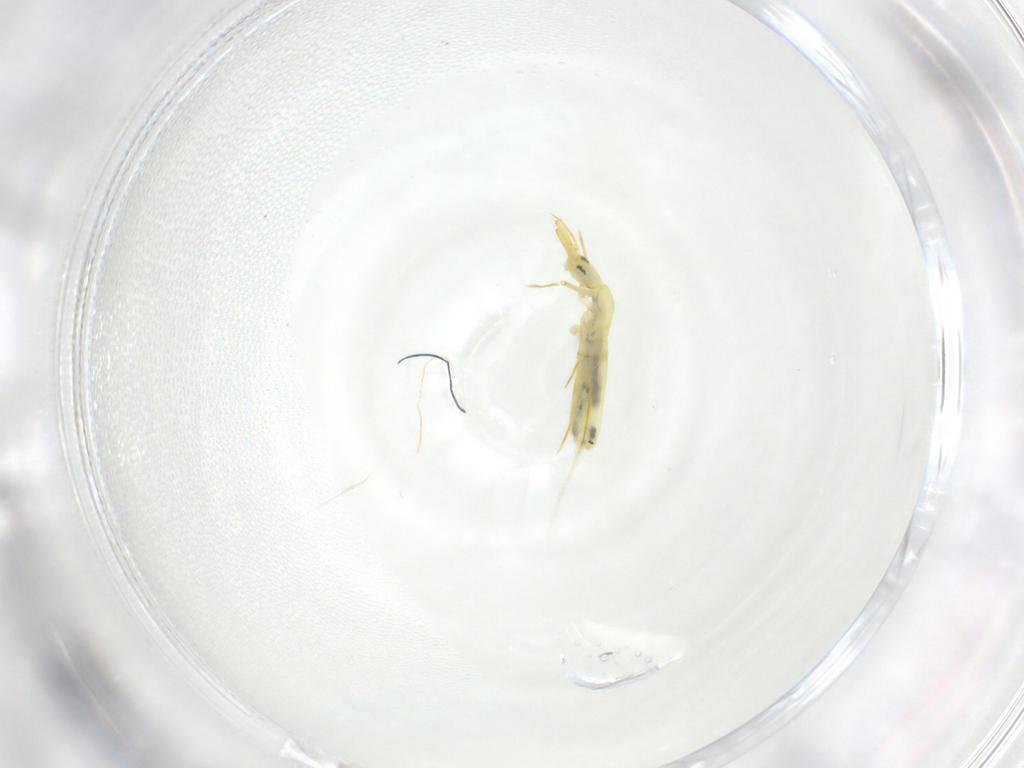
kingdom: Animalia
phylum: Arthropoda
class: Collembola
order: Entomobryomorpha
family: Entomobryidae
